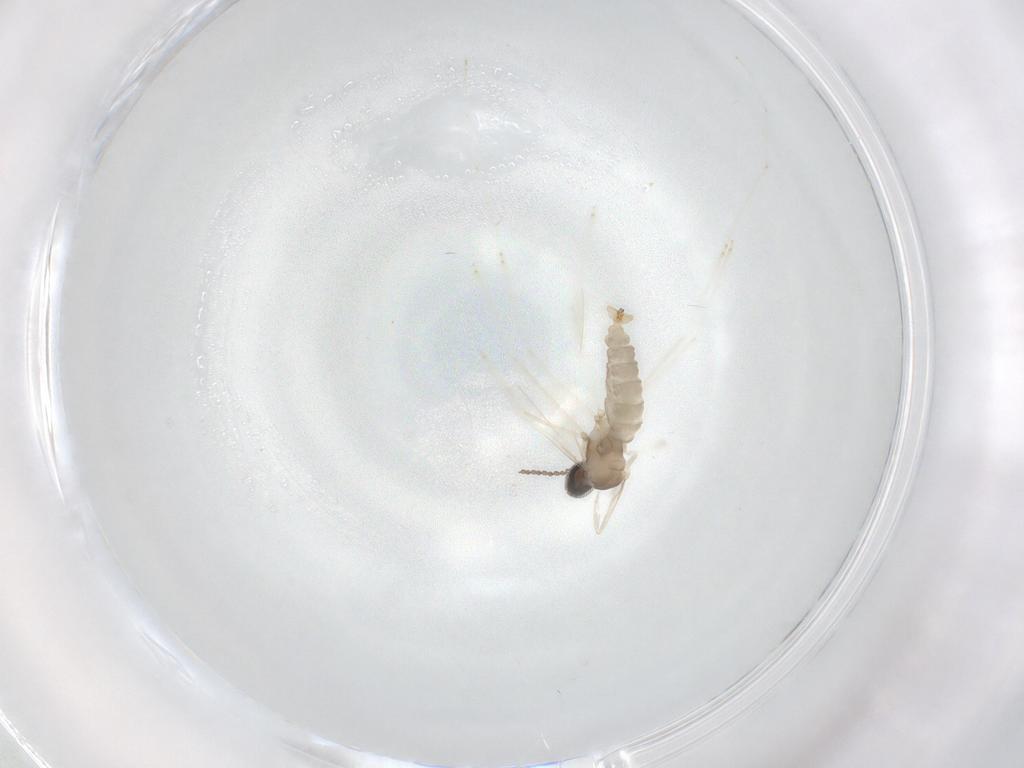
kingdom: Animalia
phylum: Arthropoda
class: Insecta
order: Diptera
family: Cecidomyiidae
